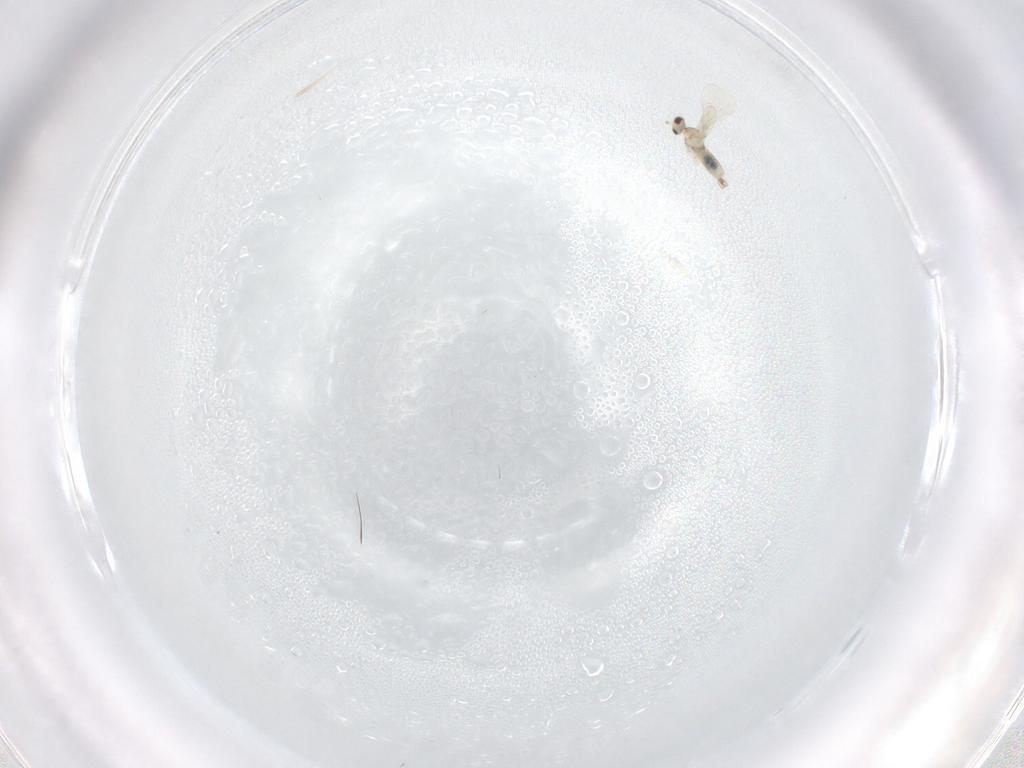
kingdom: Animalia
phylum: Arthropoda
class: Insecta
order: Diptera
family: Cecidomyiidae
